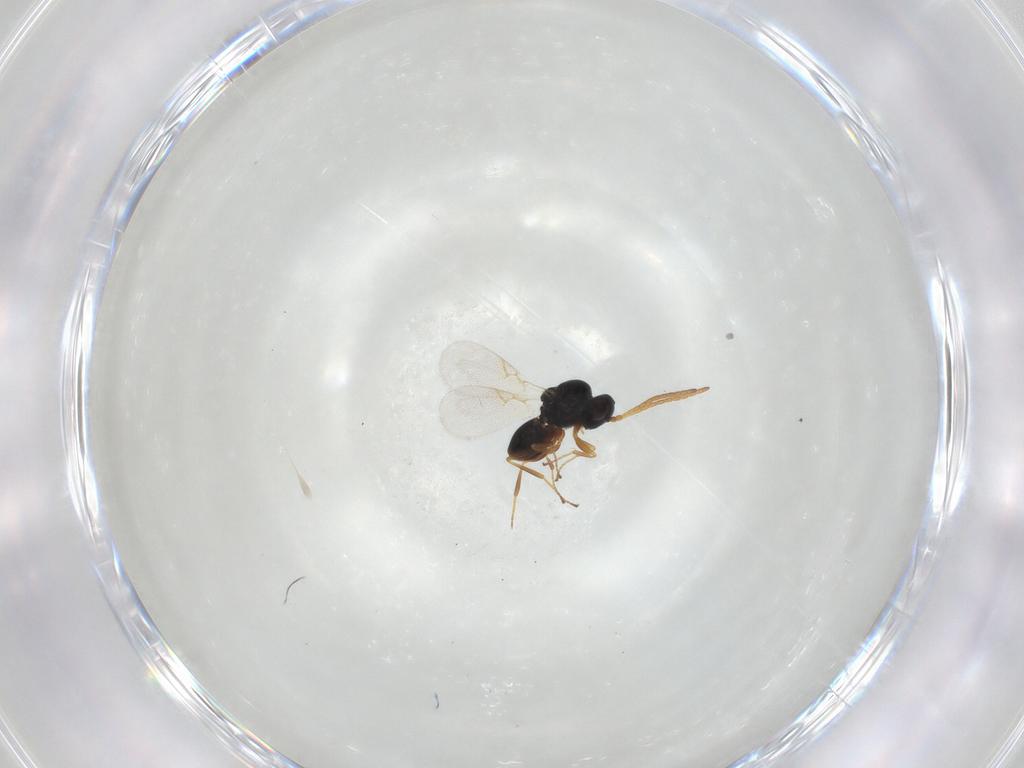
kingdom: Animalia
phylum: Arthropoda
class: Insecta
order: Hymenoptera
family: Figitidae
